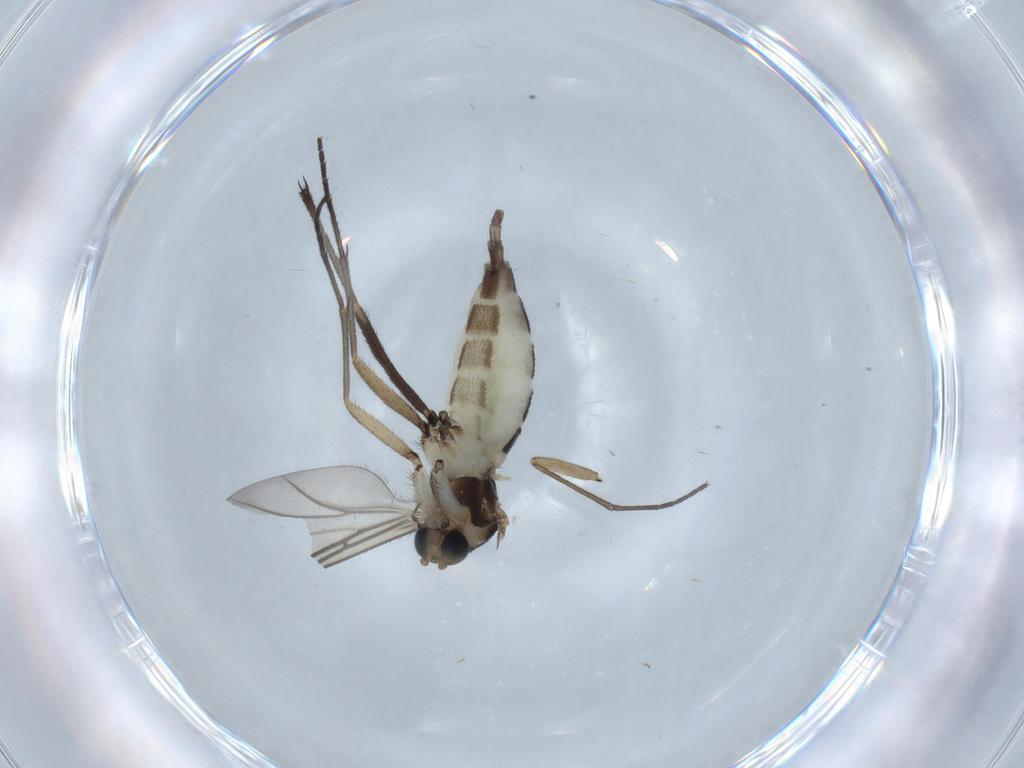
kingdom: Animalia
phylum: Arthropoda
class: Insecta
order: Diptera
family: Sciaridae
